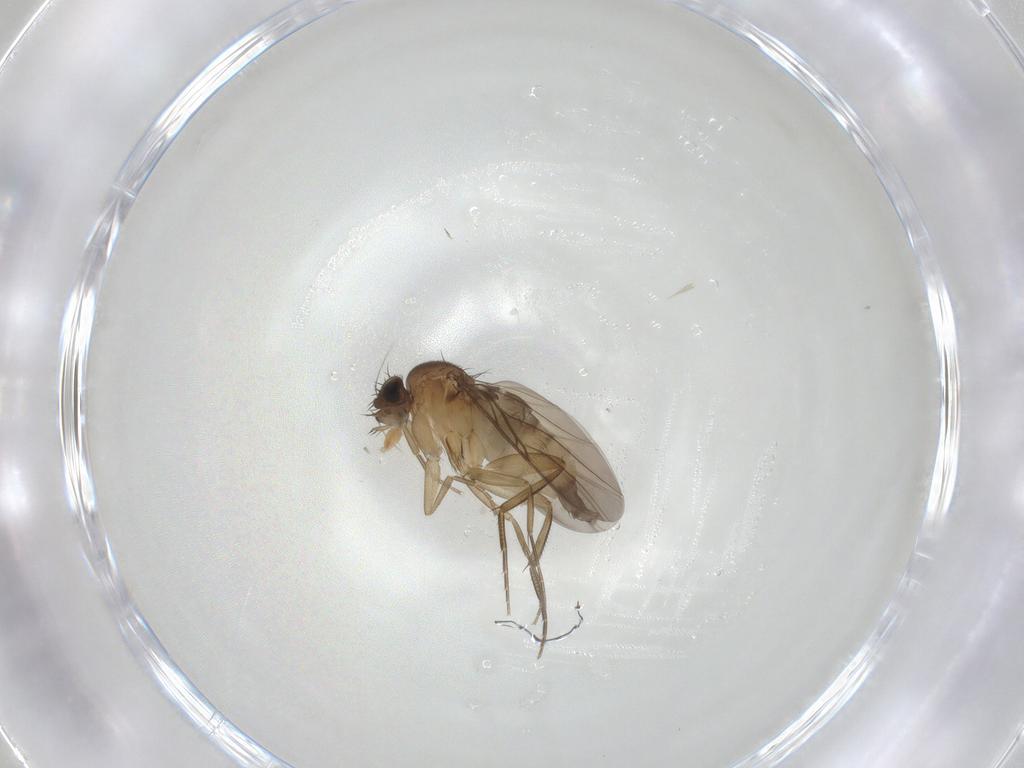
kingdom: Animalia
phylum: Arthropoda
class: Insecta
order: Diptera
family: Phoridae
